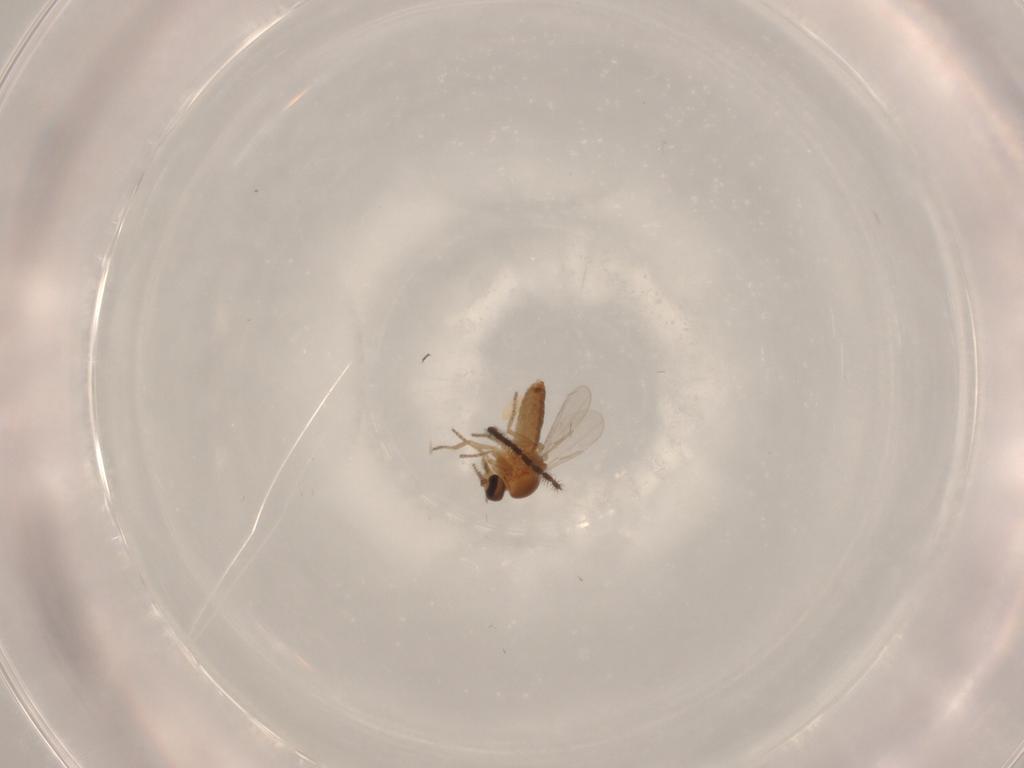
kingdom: Animalia
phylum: Arthropoda
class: Insecta
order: Diptera
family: Ceratopogonidae
